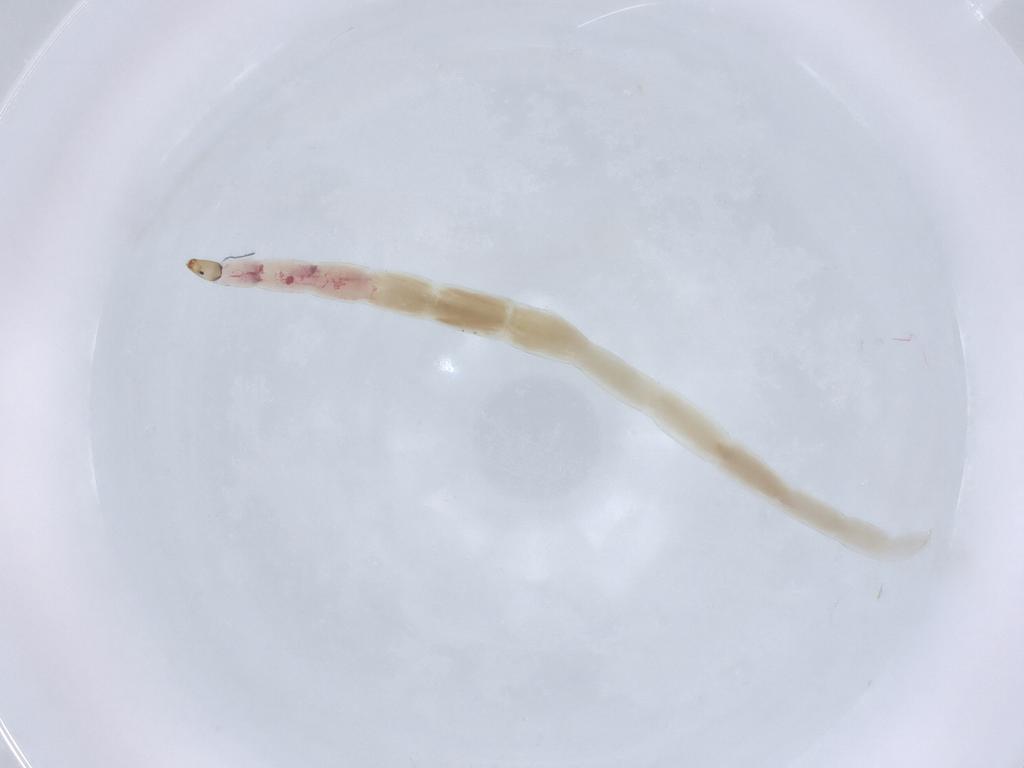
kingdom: Animalia
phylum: Arthropoda
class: Insecta
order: Diptera
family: Ceratopogonidae
